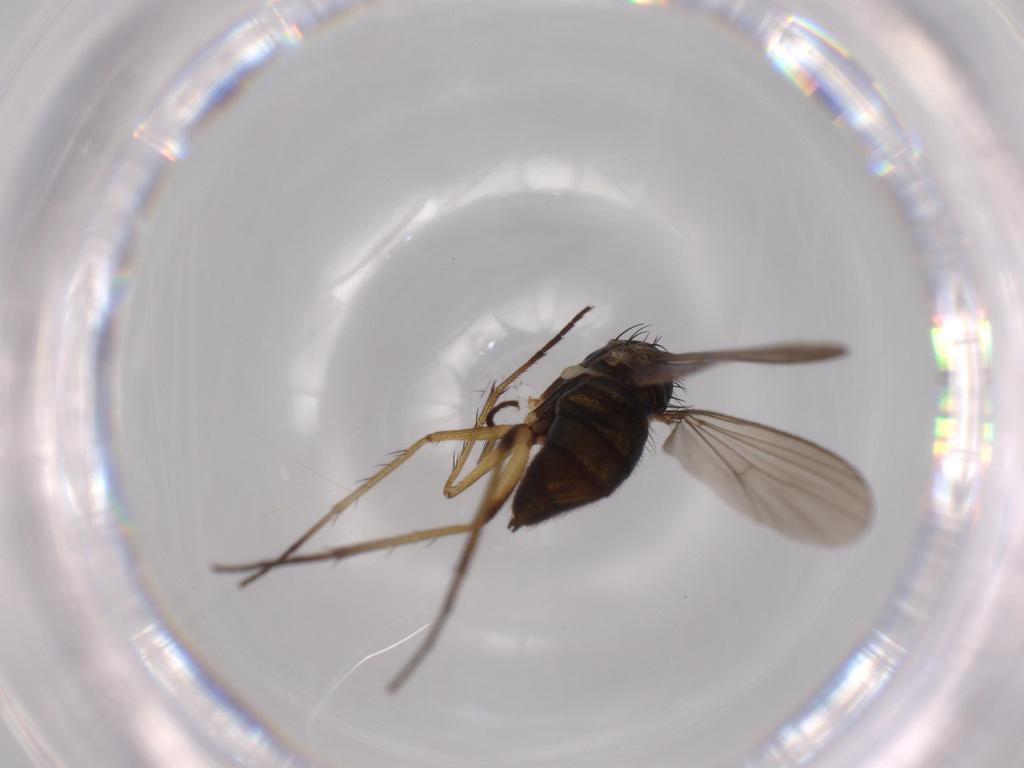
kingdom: Animalia
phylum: Arthropoda
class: Insecta
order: Diptera
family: Dolichopodidae
